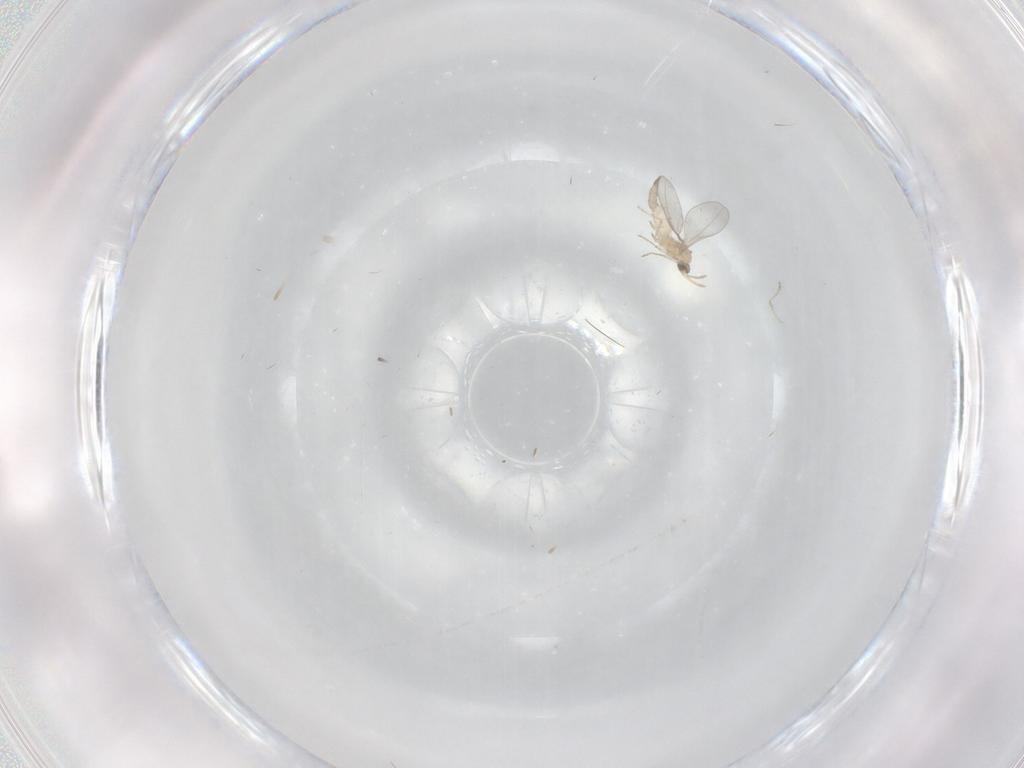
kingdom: Animalia
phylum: Arthropoda
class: Insecta
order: Diptera
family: Cecidomyiidae
